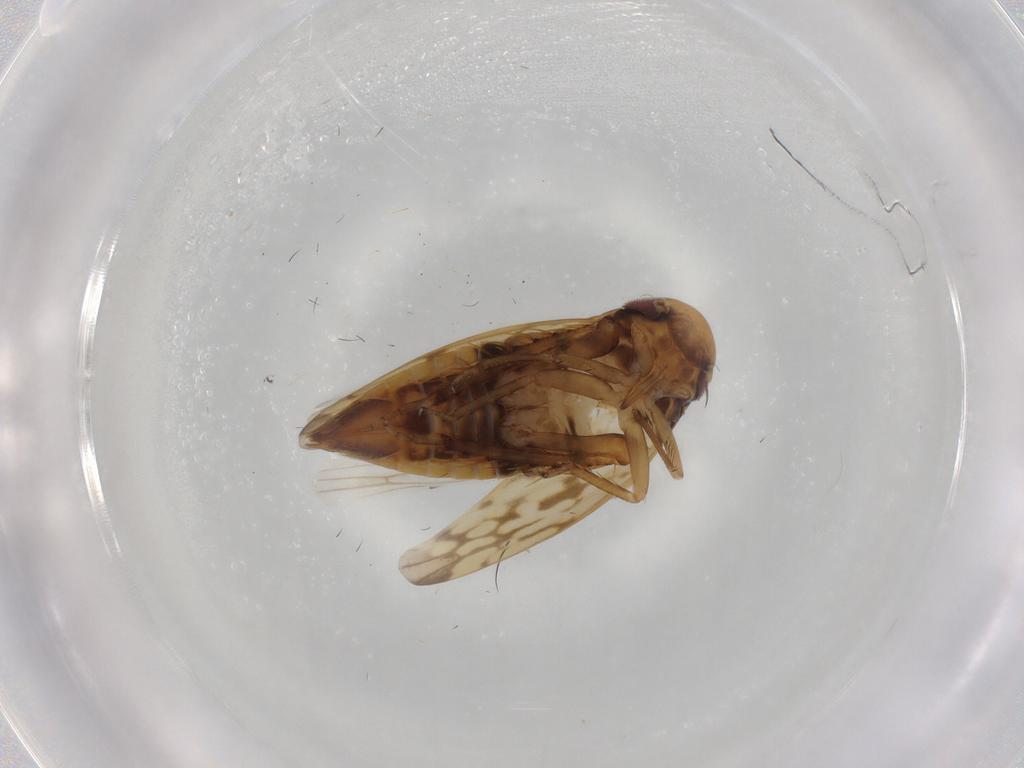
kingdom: Animalia
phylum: Arthropoda
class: Insecta
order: Hemiptera
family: Cicadellidae
